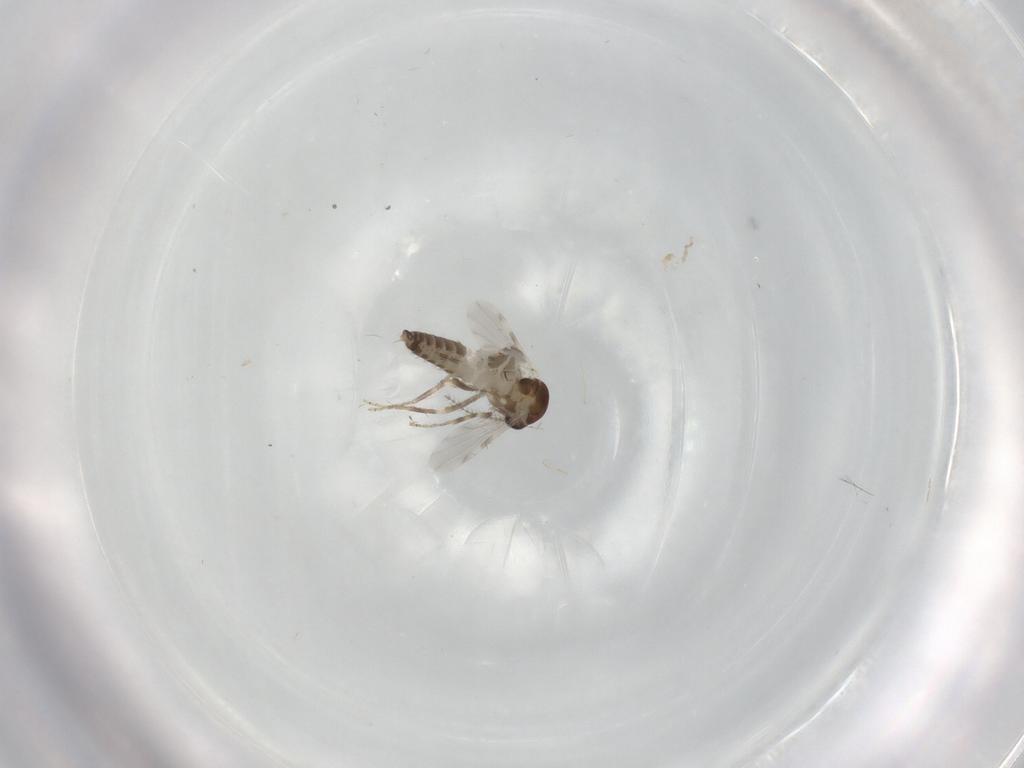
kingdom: Animalia
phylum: Arthropoda
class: Insecta
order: Diptera
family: Ceratopogonidae
